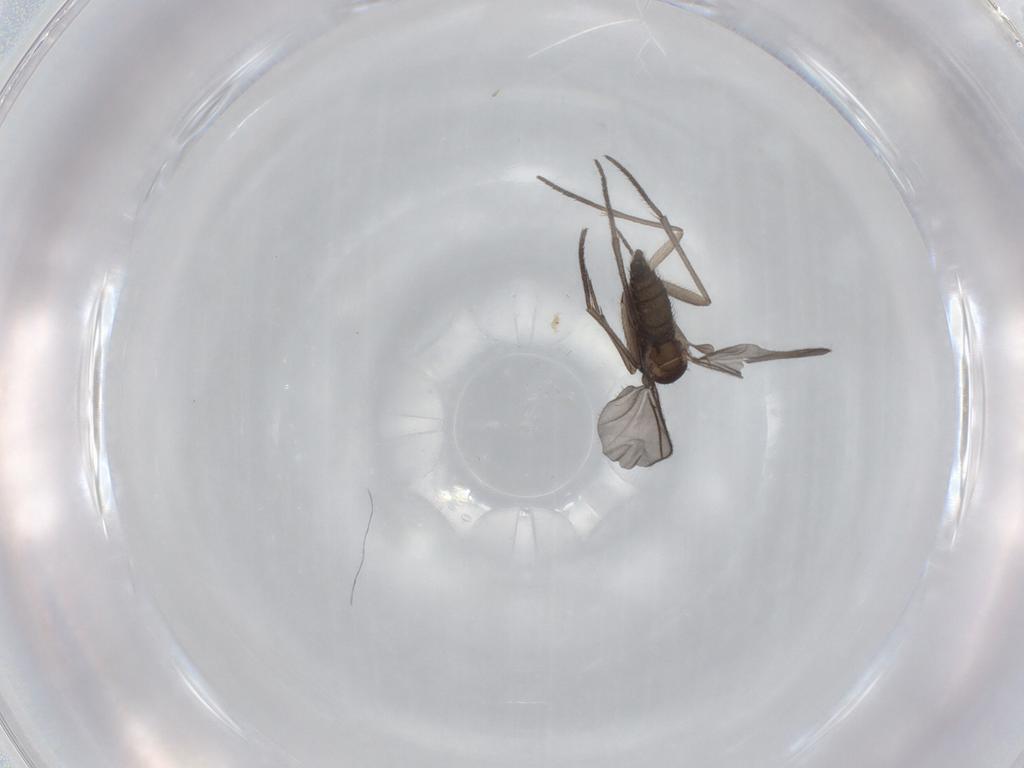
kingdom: Animalia
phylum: Arthropoda
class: Insecta
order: Diptera
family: Sciaridae
